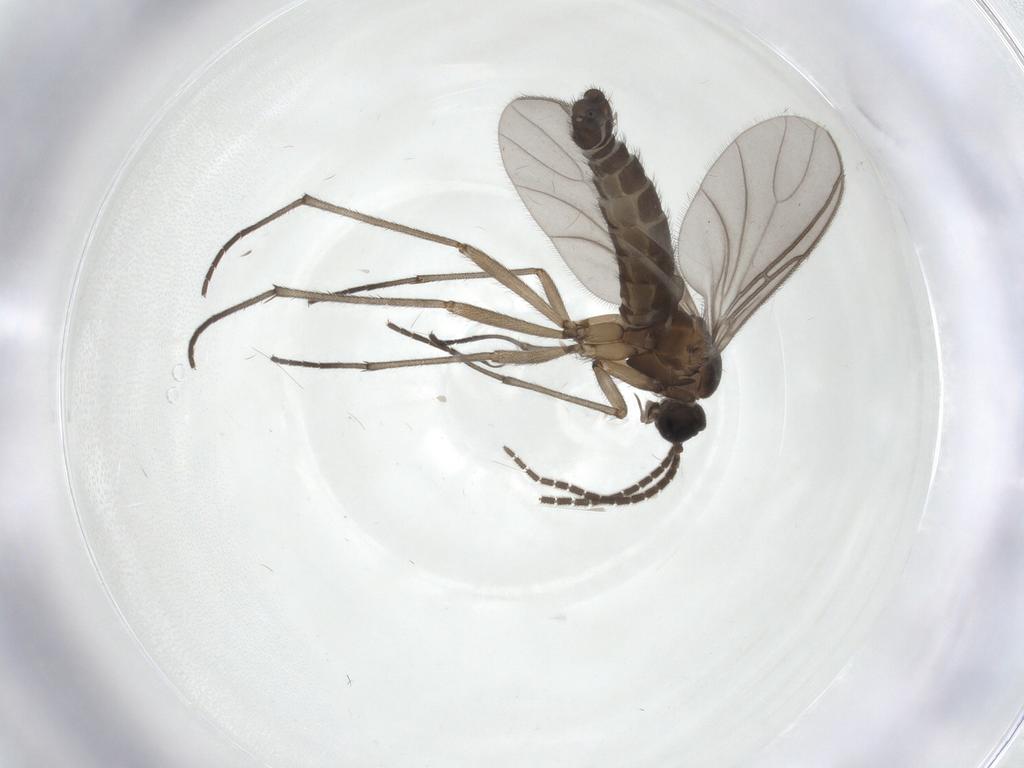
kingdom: Animalia
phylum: Arthropoda
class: Insecta
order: Diptera
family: Sciaridae
